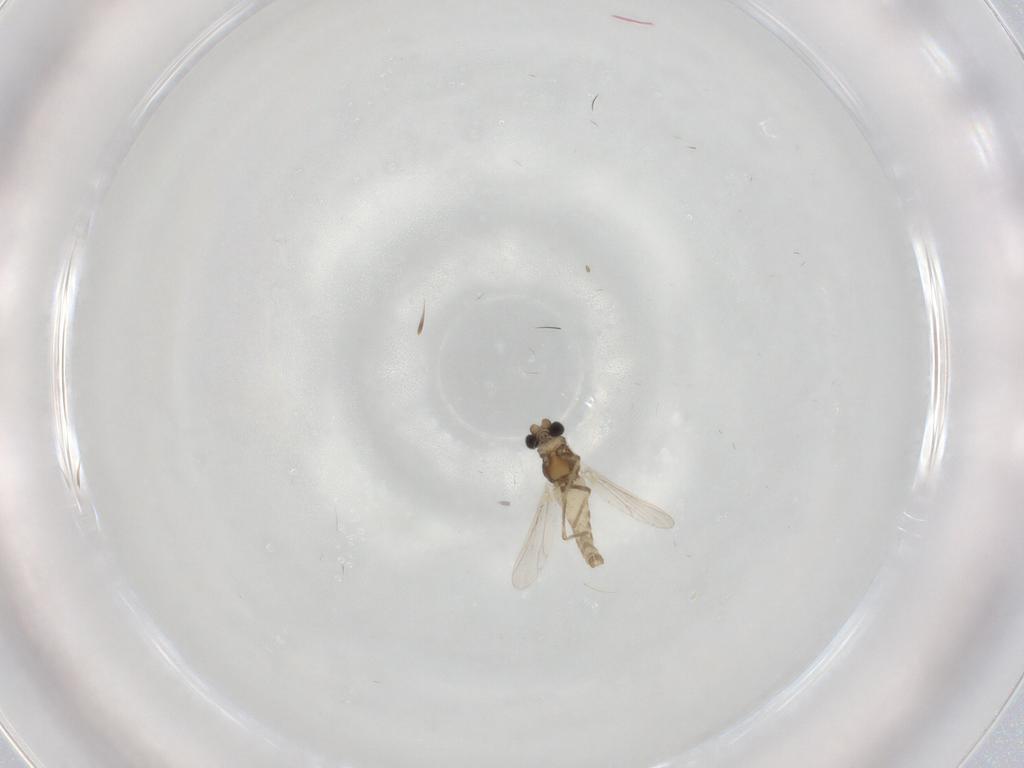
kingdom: Animalia
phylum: Arthropoda
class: Insecta
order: Diptera
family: Chironomidae
